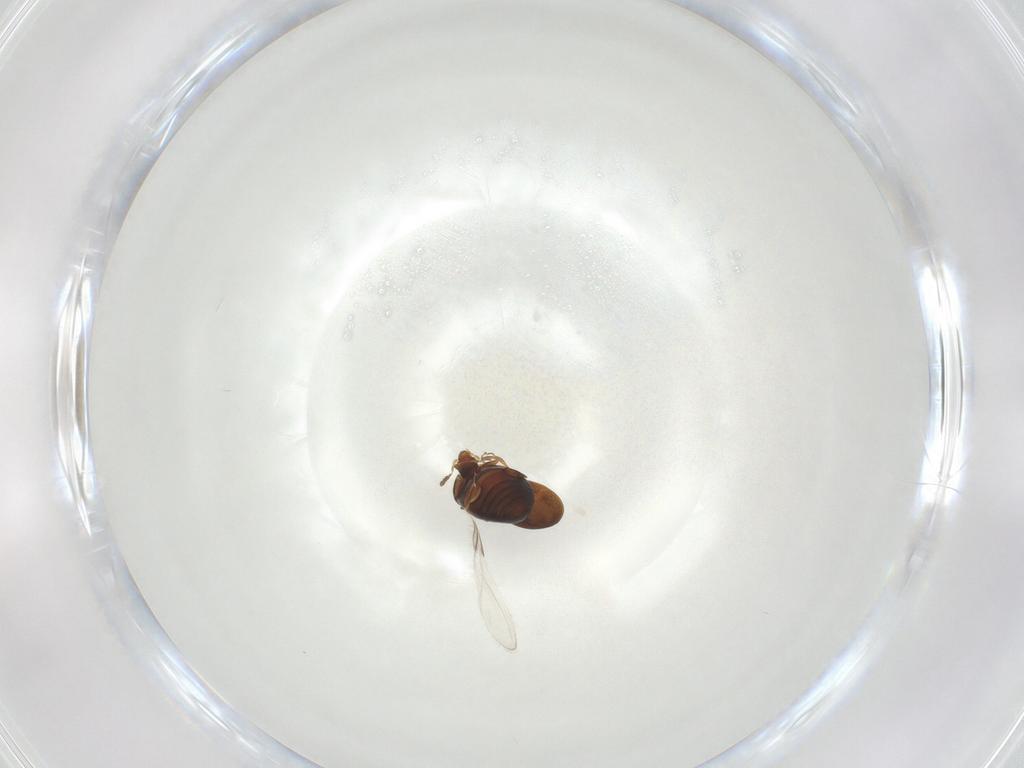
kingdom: Animalia
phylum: Arthropoda
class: Insecta
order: Coleoptera
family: Corylophidae
